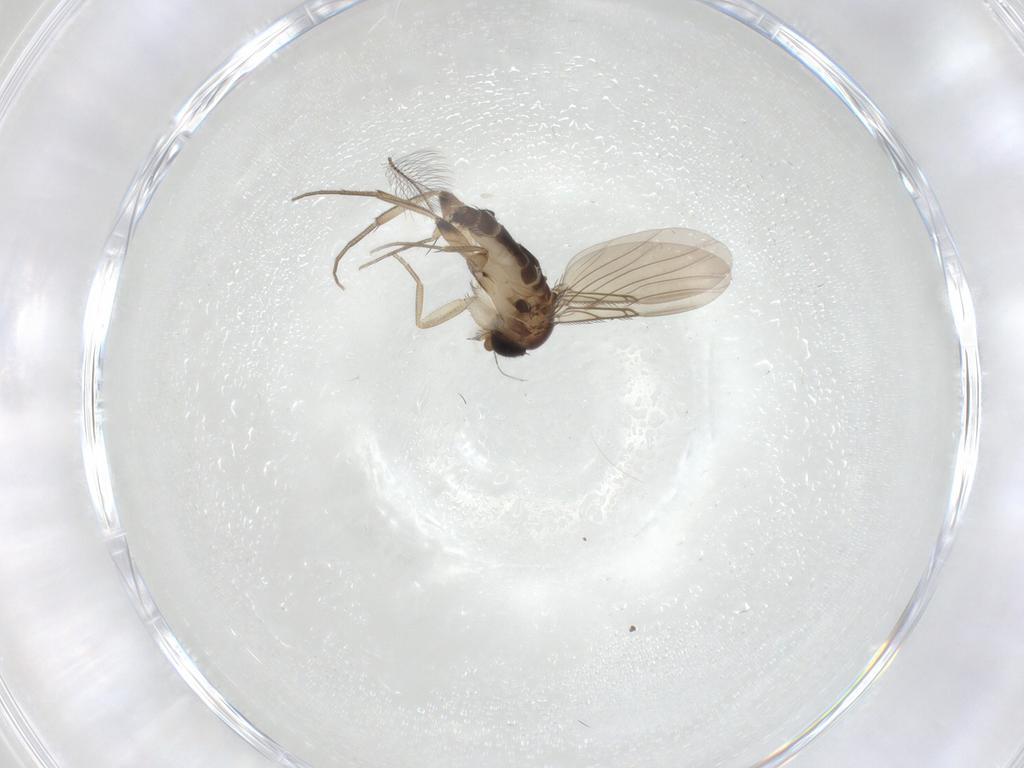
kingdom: Animalia
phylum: Arthropoda
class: Insecta
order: Diptera
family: Phoridae
